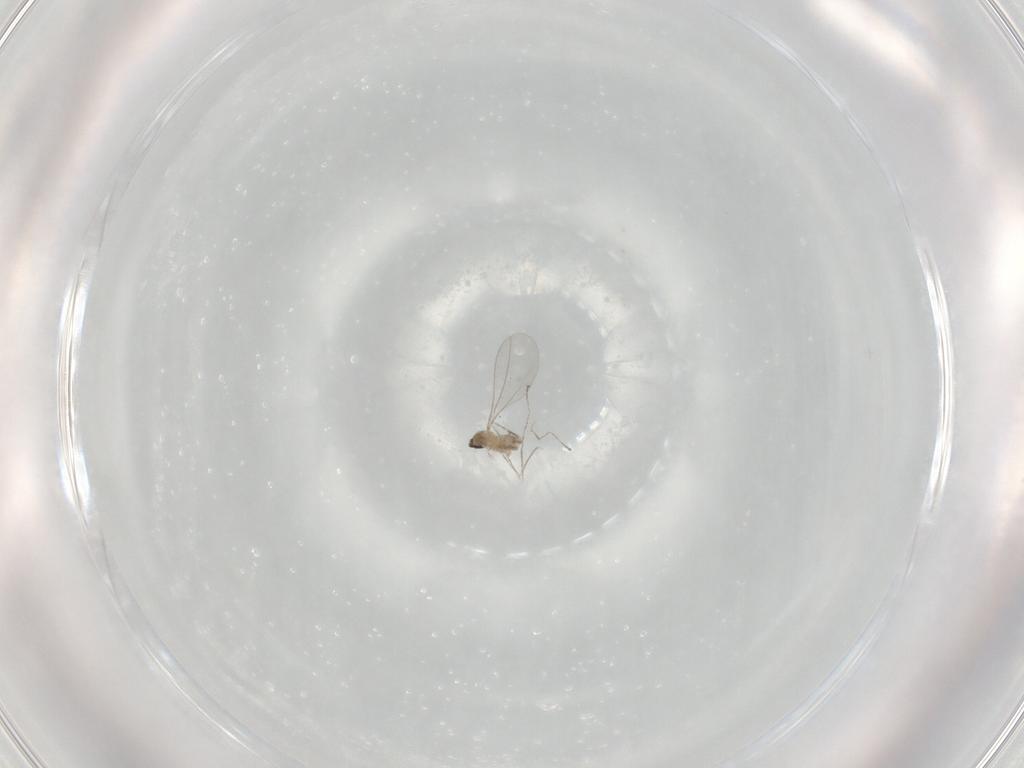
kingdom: Animalia
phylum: Arthropoda
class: Insecta
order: Diptera
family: Cecidomyiidae
